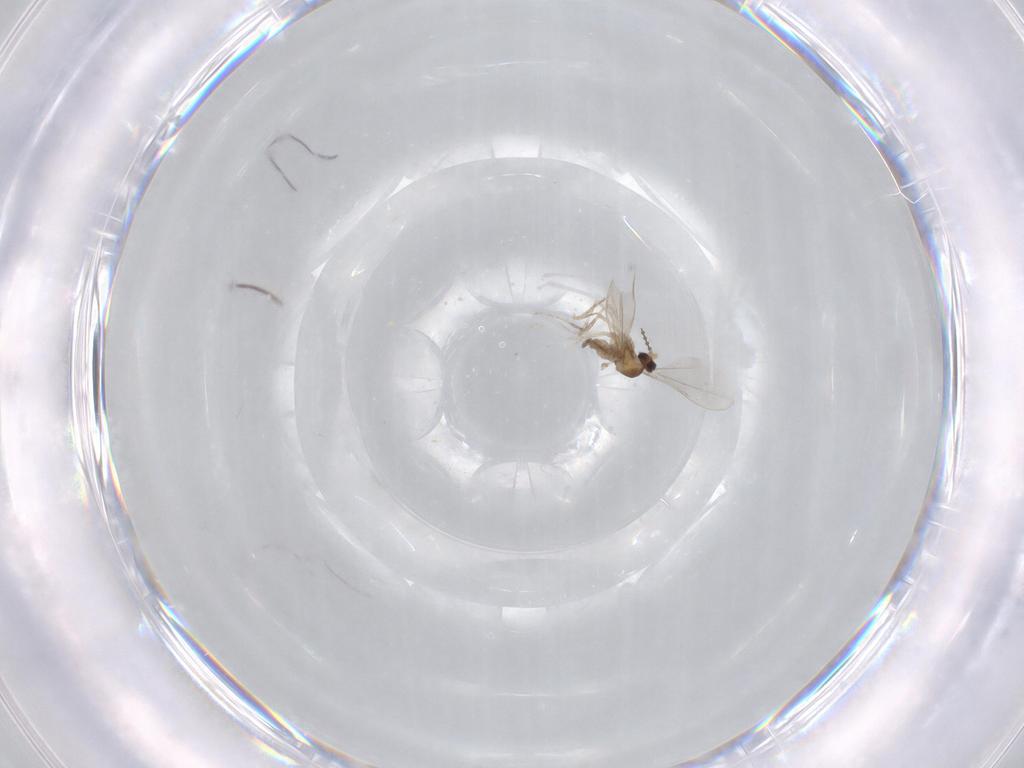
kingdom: Animalia
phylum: Arthropoda
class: Insecta
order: Diptera
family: Cecidomyiidae
